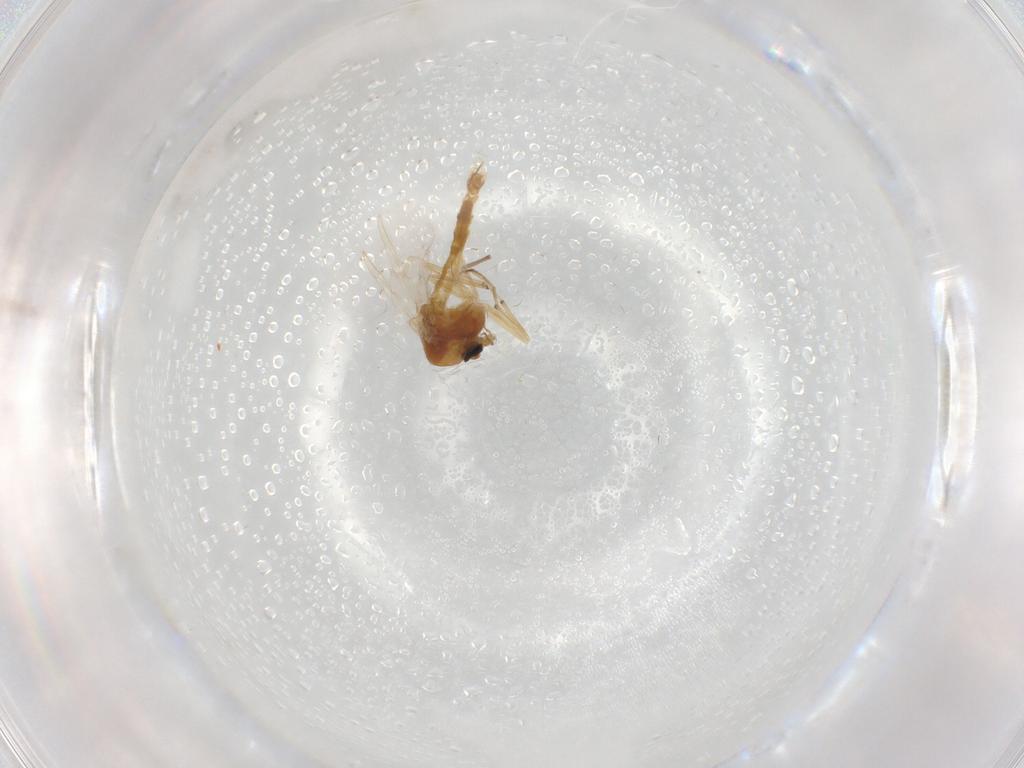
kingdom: Animalia
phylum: Arthropoda
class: Insecta
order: Diptera
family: Chironomidae
